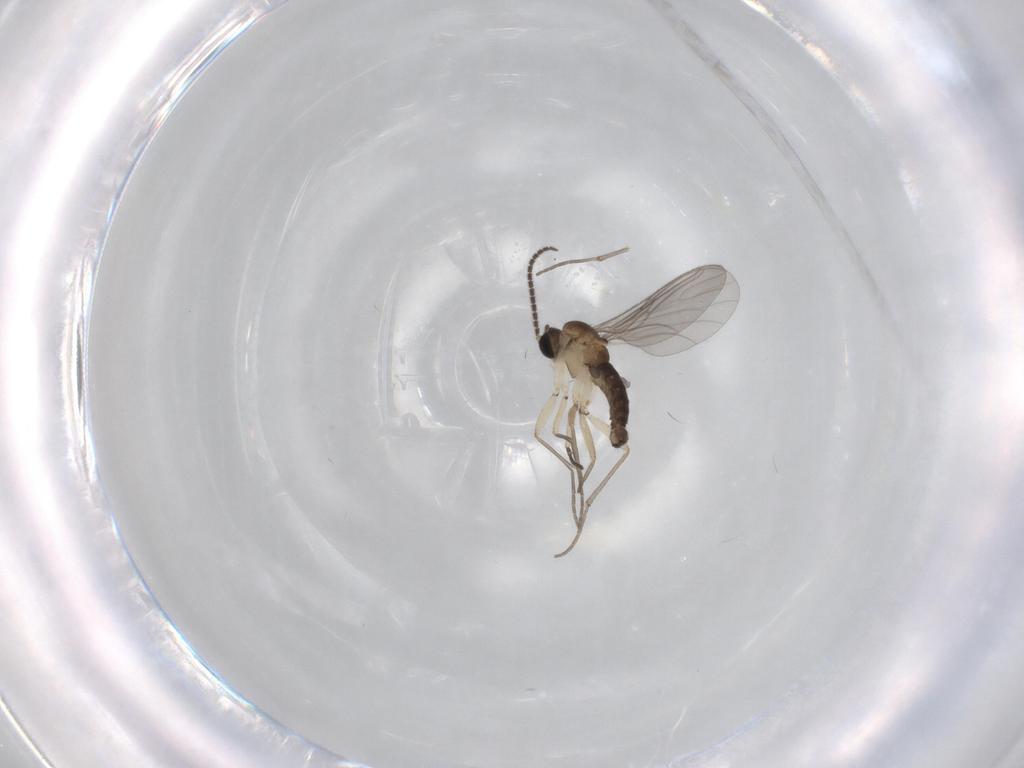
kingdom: Animalia
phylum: Arthropoda
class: Insecta
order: Diptera
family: Sciaridae
